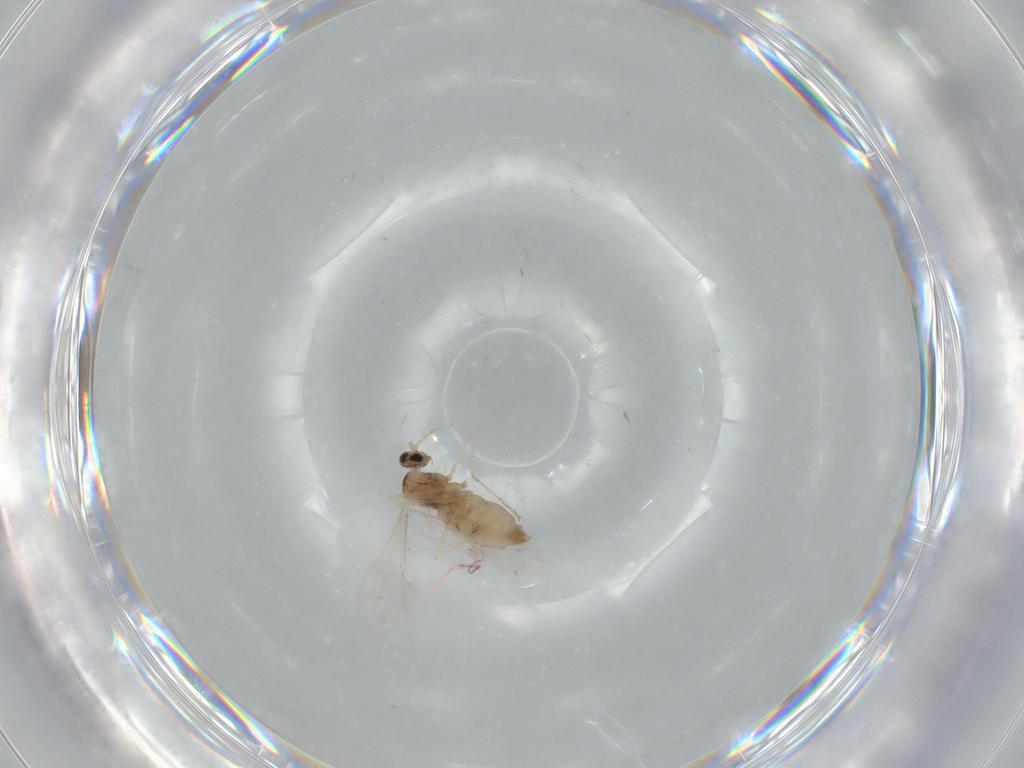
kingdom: Animalia
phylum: Arthropoda
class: Insecta
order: Diptera
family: Cecidomyiidae
